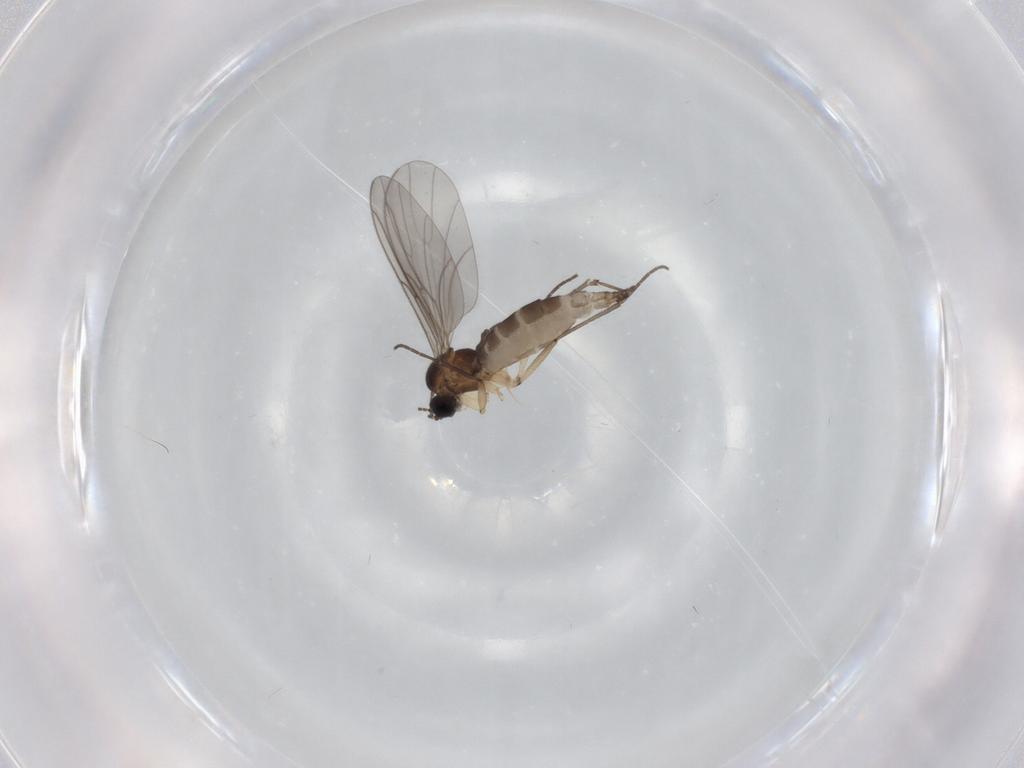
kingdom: Animalia
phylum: Arthropoda
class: Insecta
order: Diptera
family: Sciaridae
